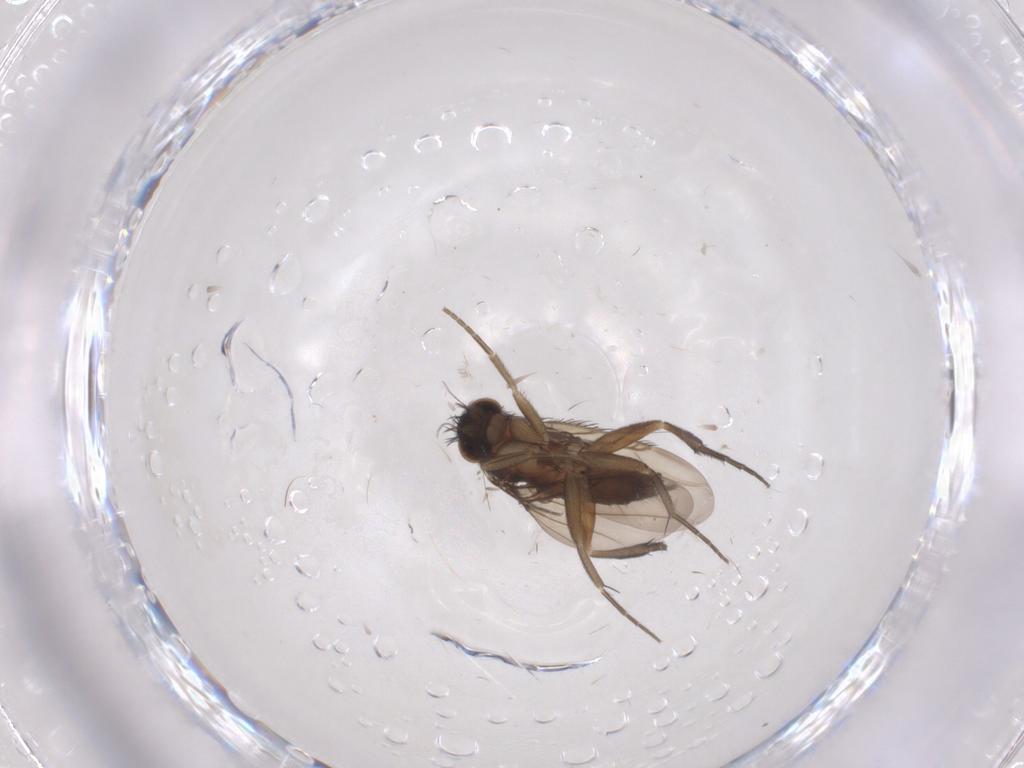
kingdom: Animalia
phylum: Arthropoda
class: Insecta
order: Diptera
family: Phoridae
